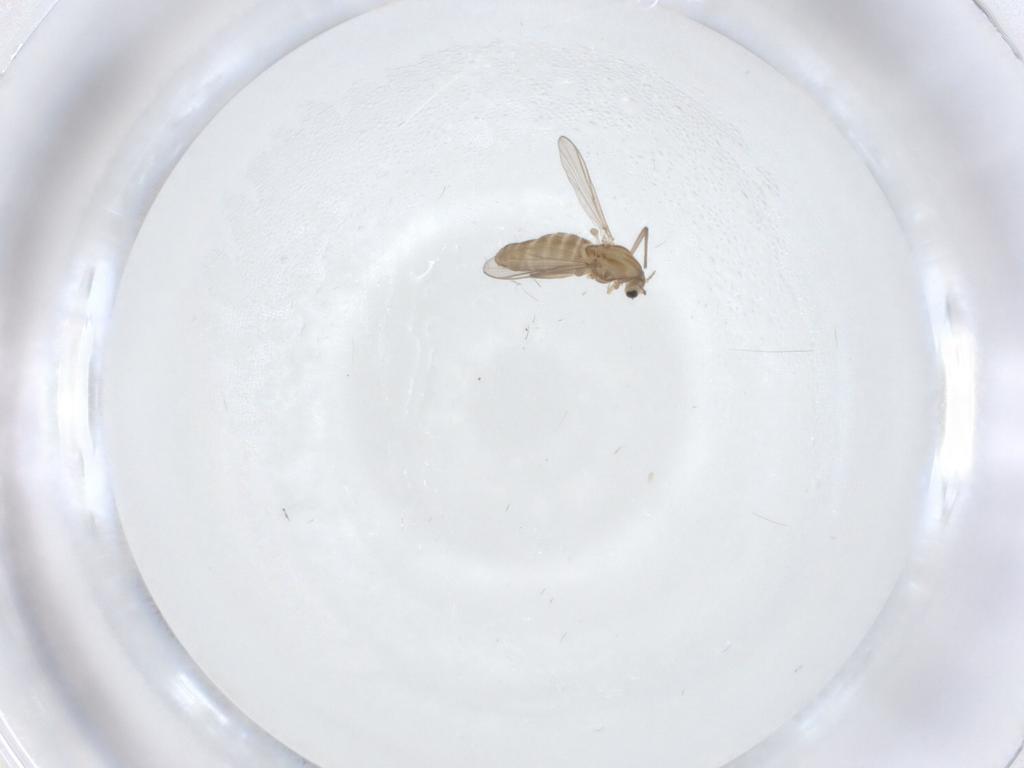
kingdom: Animalia
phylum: Arthropoda
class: Insecta
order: Diptera
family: Chironomidae
